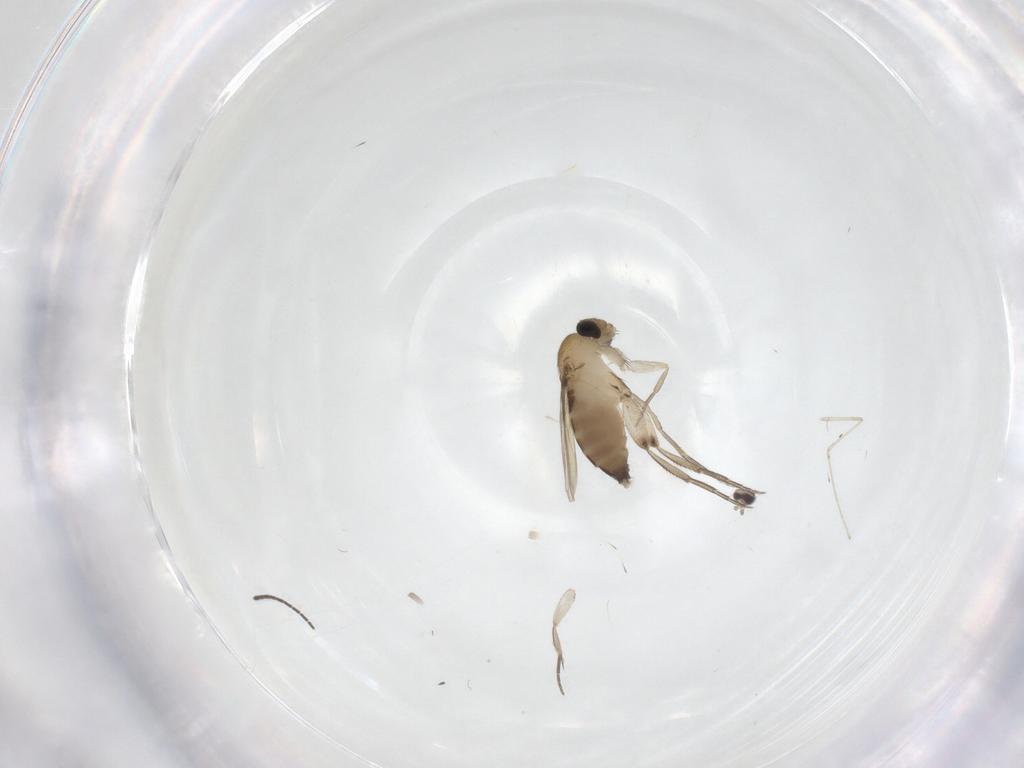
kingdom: Animalia
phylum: Arthropoda
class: Insecta
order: Diptera
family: Phoridae
